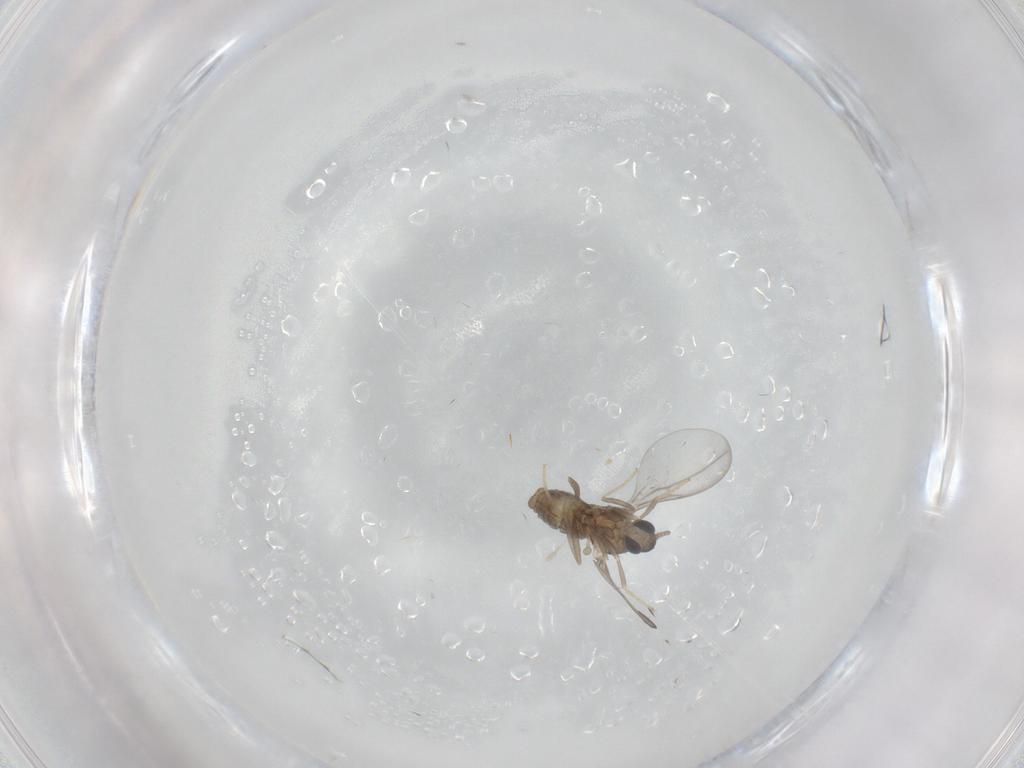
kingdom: Animalia
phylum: Arthropoda
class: Insecta
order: Diptera
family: Cecidomyiidae
